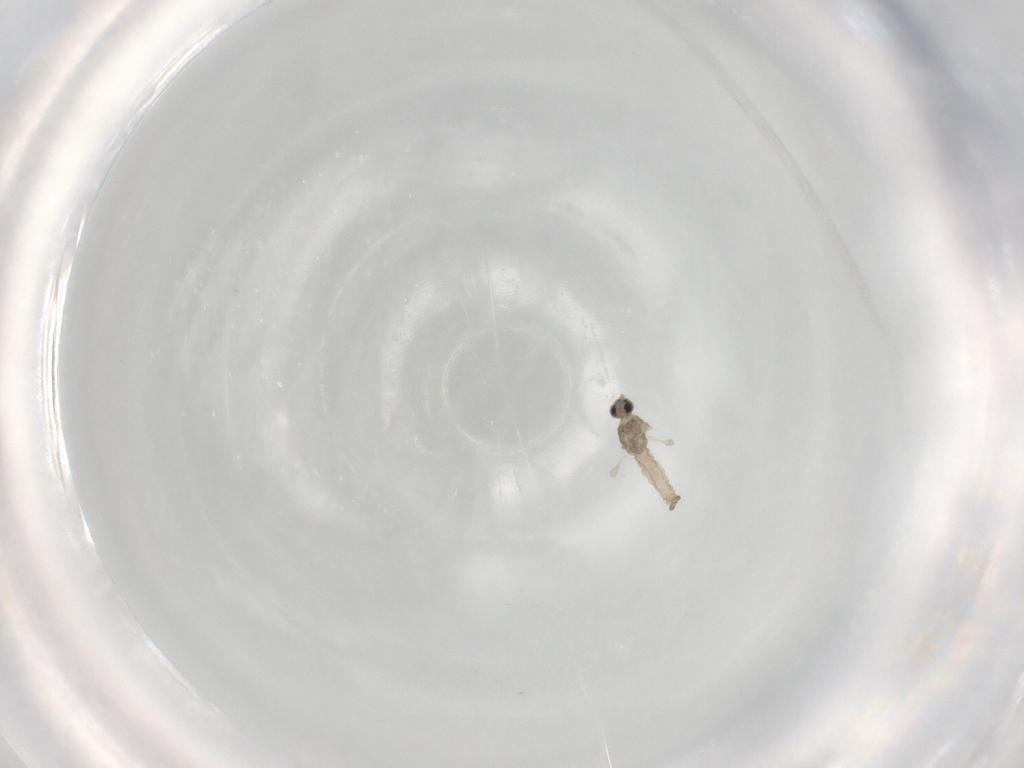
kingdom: Animalia
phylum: Arthropoda
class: Insecta
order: Diptera
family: Cecidomyiidae
